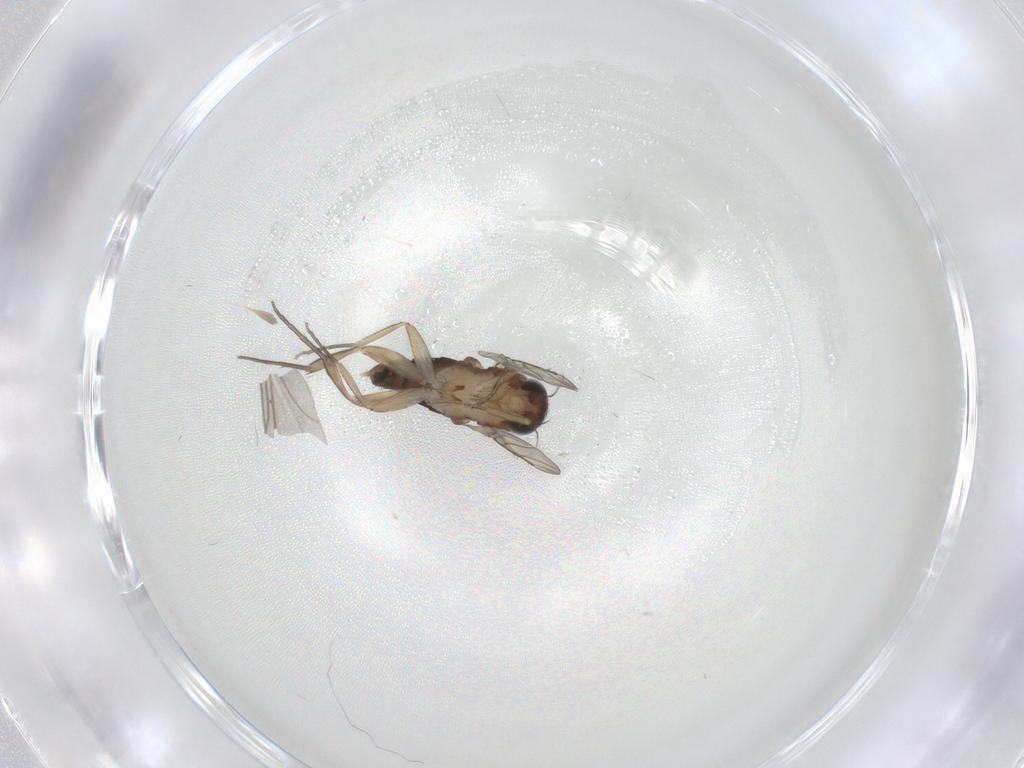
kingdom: Animalia
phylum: Arthropoda
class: Insecta
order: Diptera
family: Phoridae
